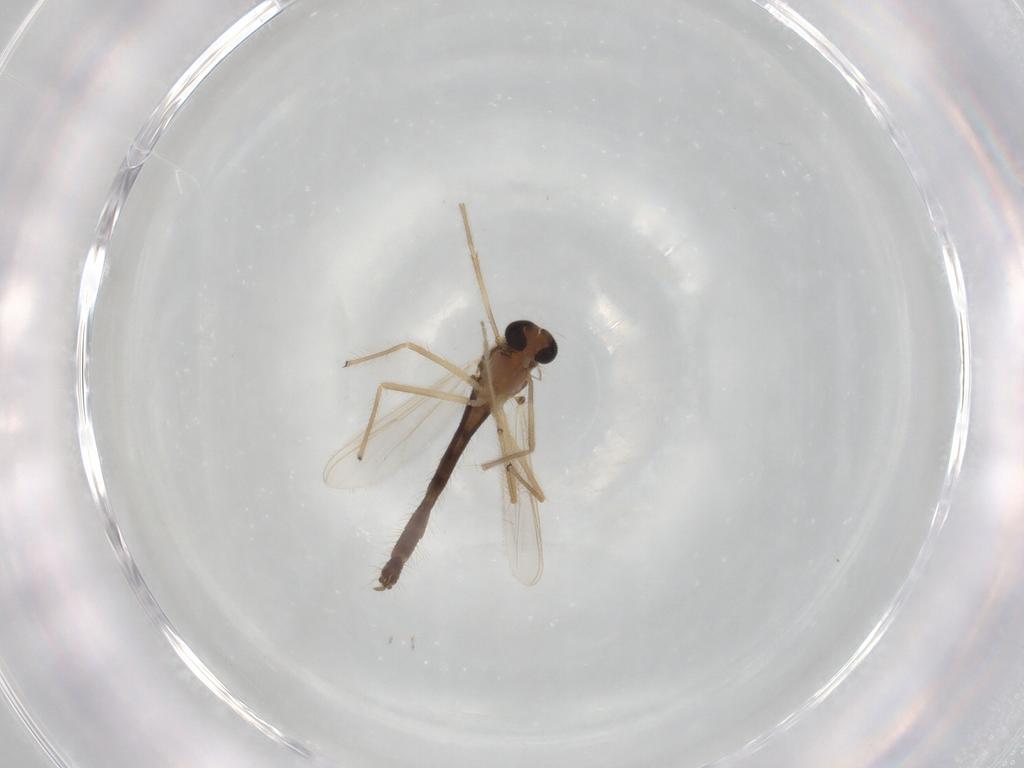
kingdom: Animalia
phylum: Arthropoda
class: Insecta
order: Diptera
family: Chironomidae
